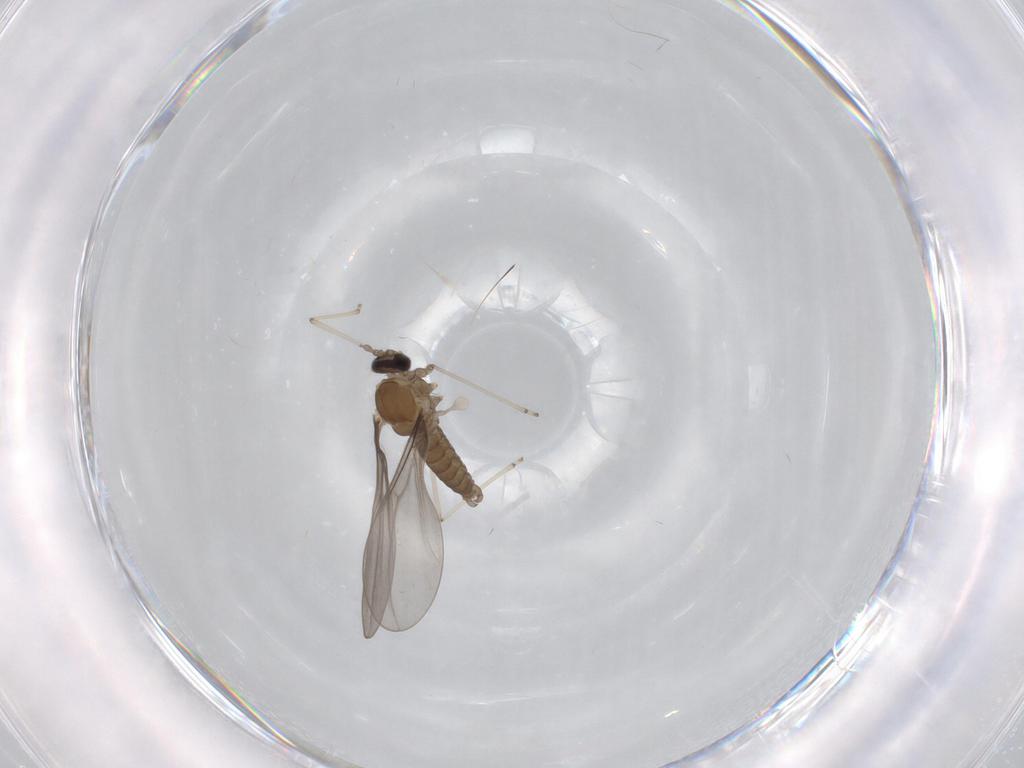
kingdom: Animalia
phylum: Arthropoda
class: Insecta
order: Diptera
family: Cecidomyiidae
